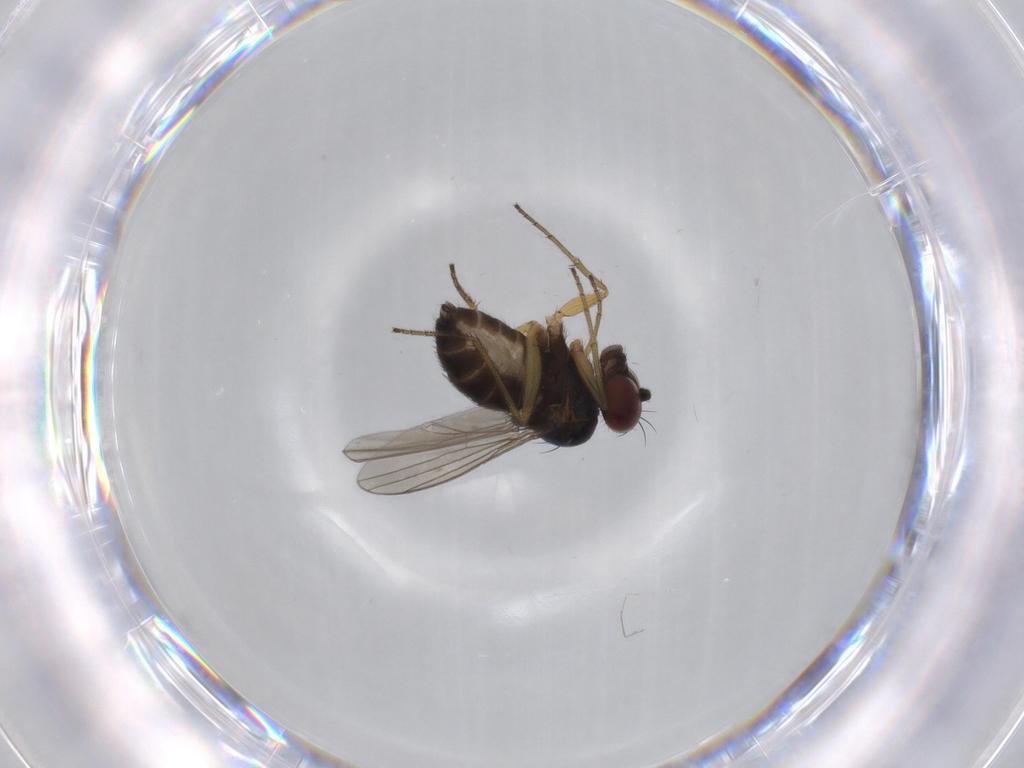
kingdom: Animalia
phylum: Arthropoda
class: Insecta
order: Diptera
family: Dolichopodidae
